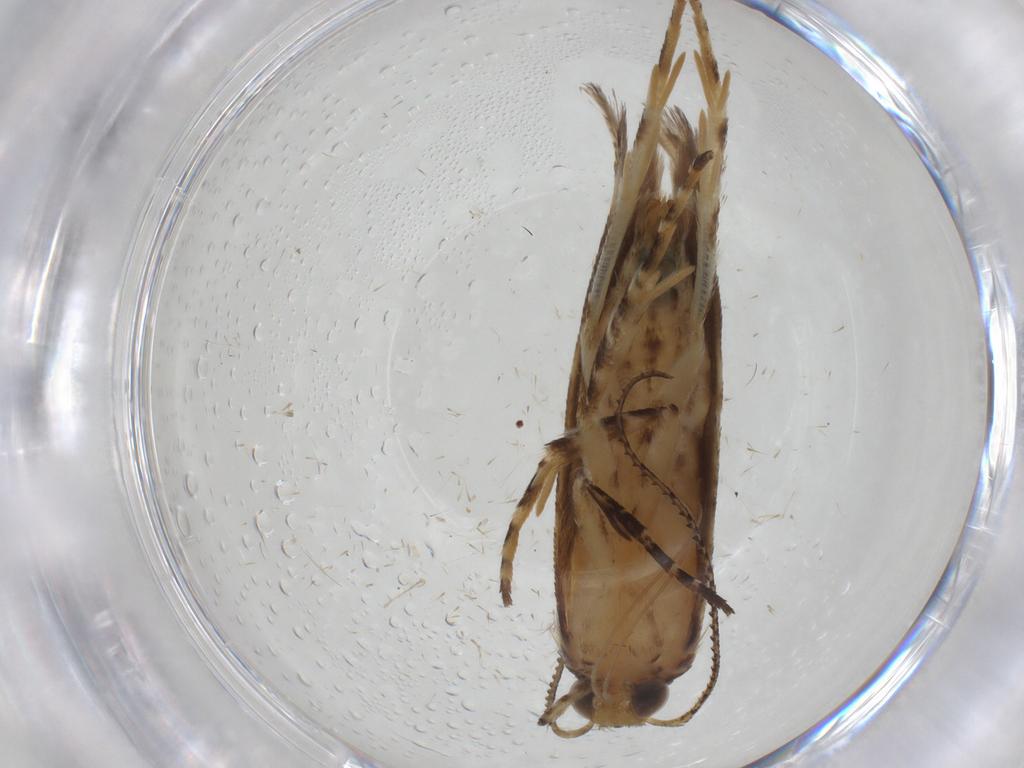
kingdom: Animalia
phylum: Arthropoda
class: Insecta
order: Lepidoptera
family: Gelechiidae
